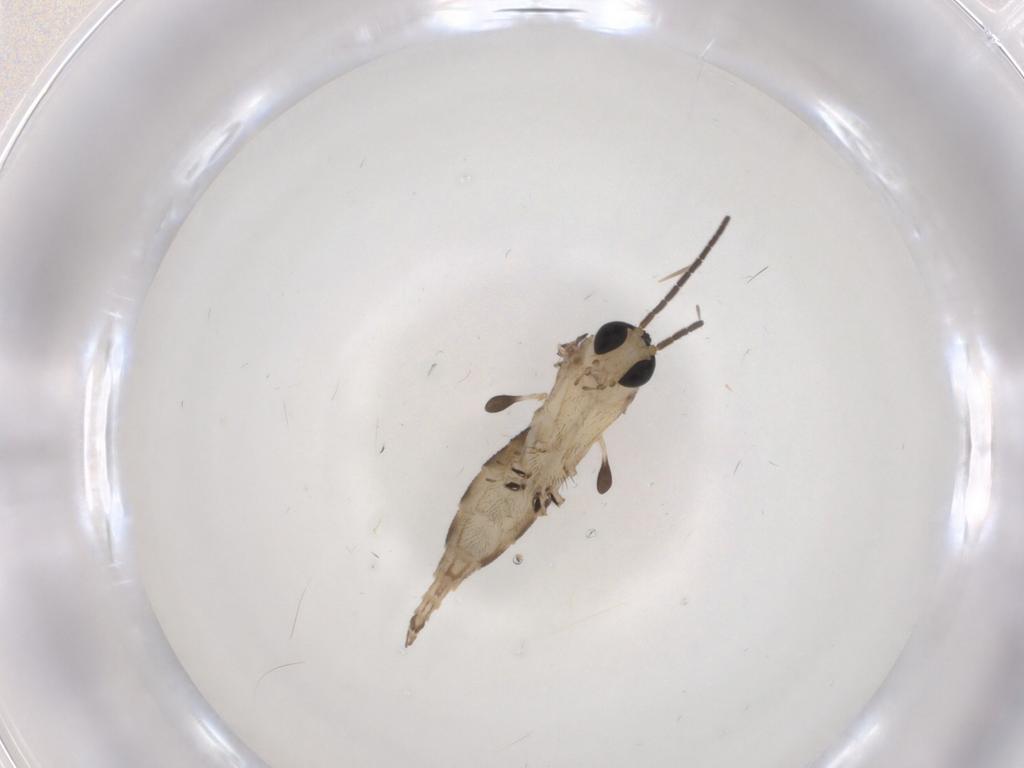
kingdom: Animalia
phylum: Arthropoda
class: Insecta
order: Diptera
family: Sciaridae
